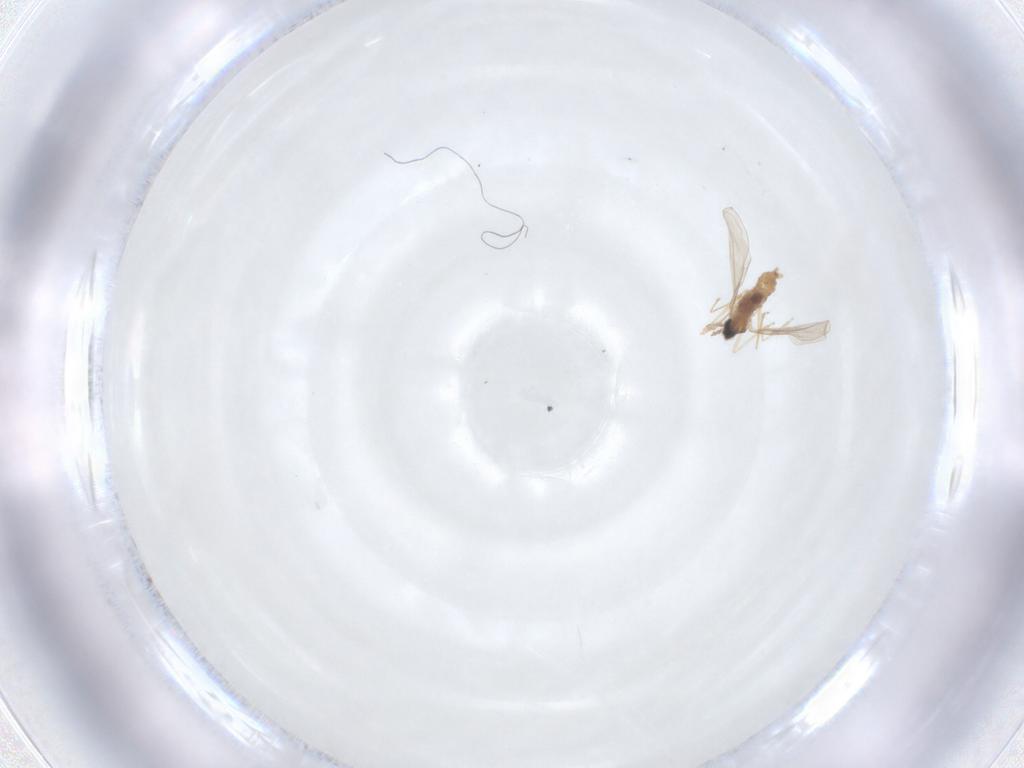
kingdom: Animalia
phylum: Arthropoda
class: Insecta
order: Diptera
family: Cecidomyiidae
